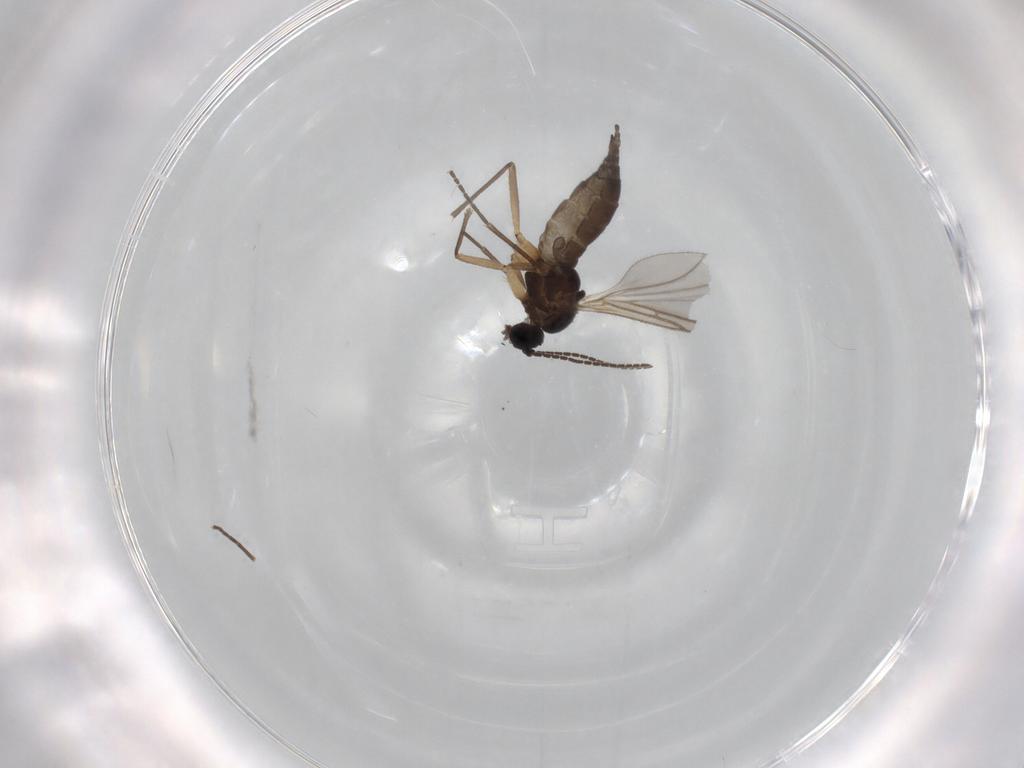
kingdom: Animalia
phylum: Arthropoda
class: Insecta
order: Diptera
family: Sciaridae
